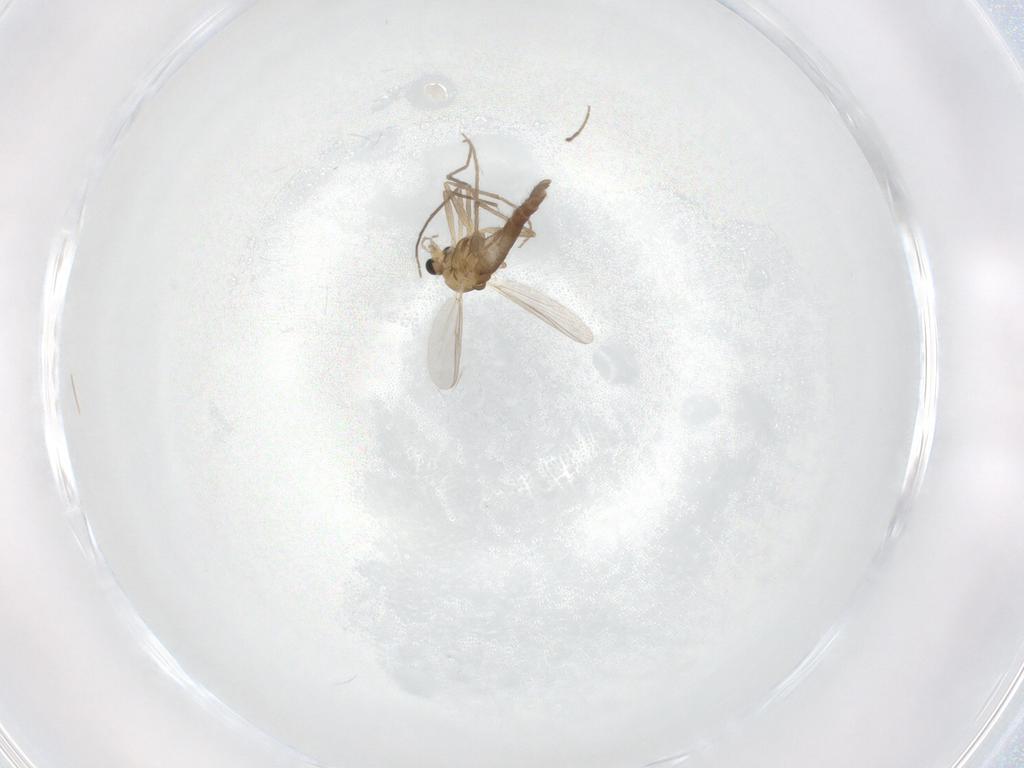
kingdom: Animalia
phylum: Arthropoda
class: Insecta
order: Diptera
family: Chironomidae
